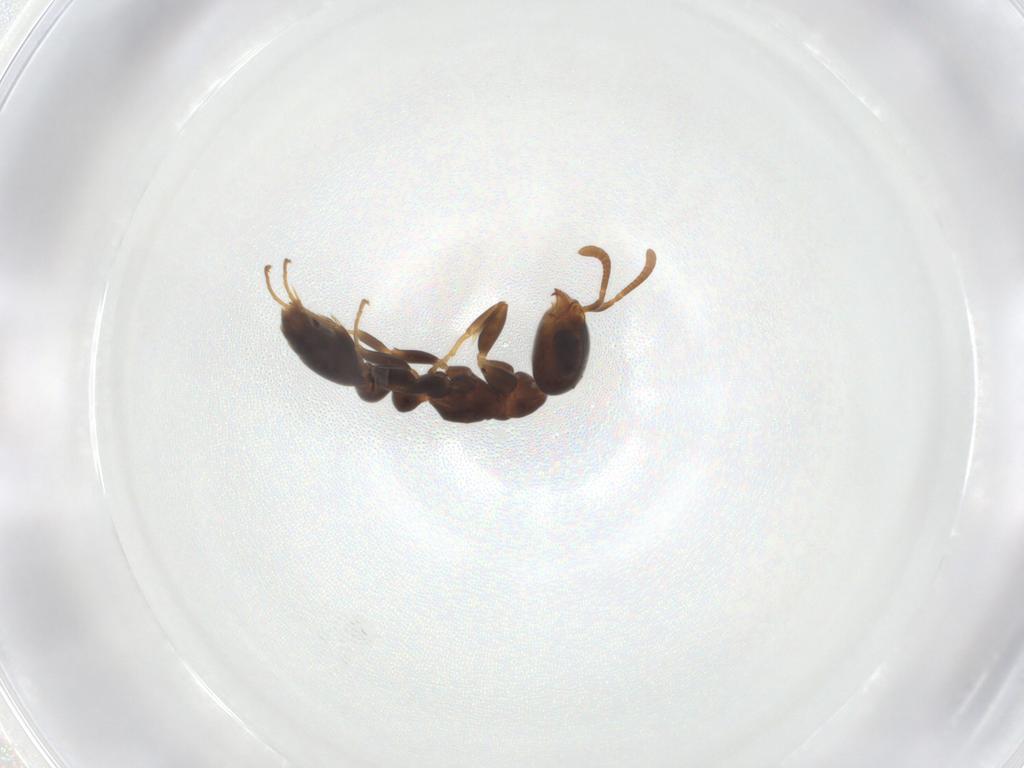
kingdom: Animalia
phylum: Arthropoda
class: Insecta
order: Hymenoptera
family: Formicidae
